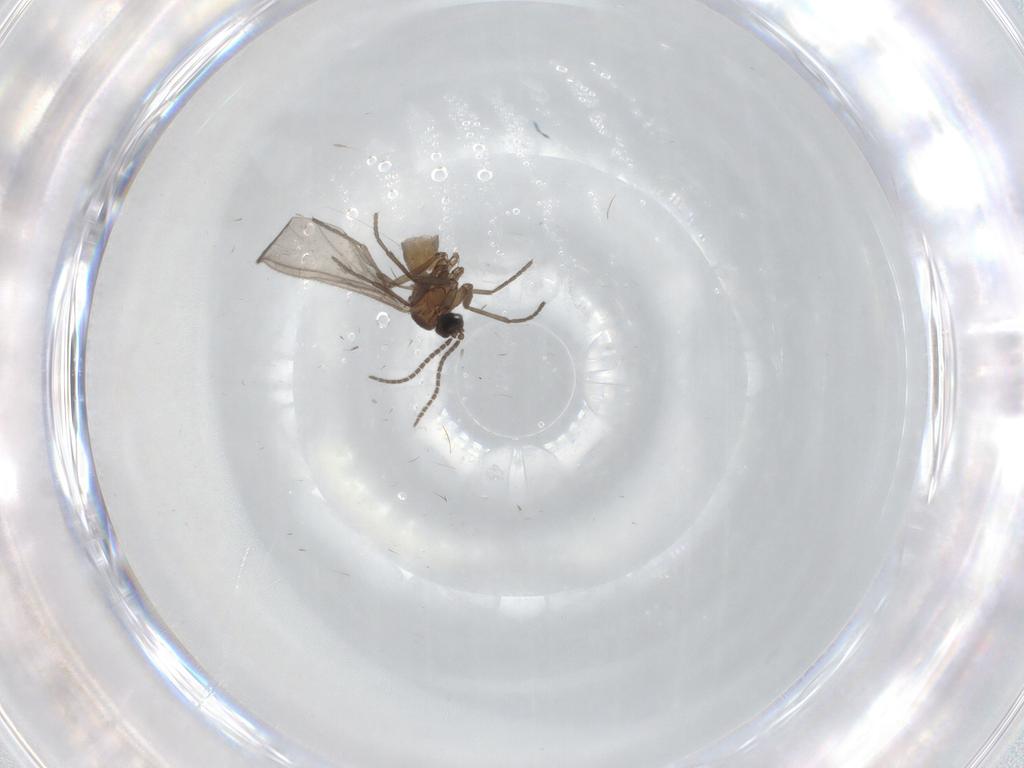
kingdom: Animalia
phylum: Arthropoda
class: Insecta
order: Diptera
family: Sciaridae
